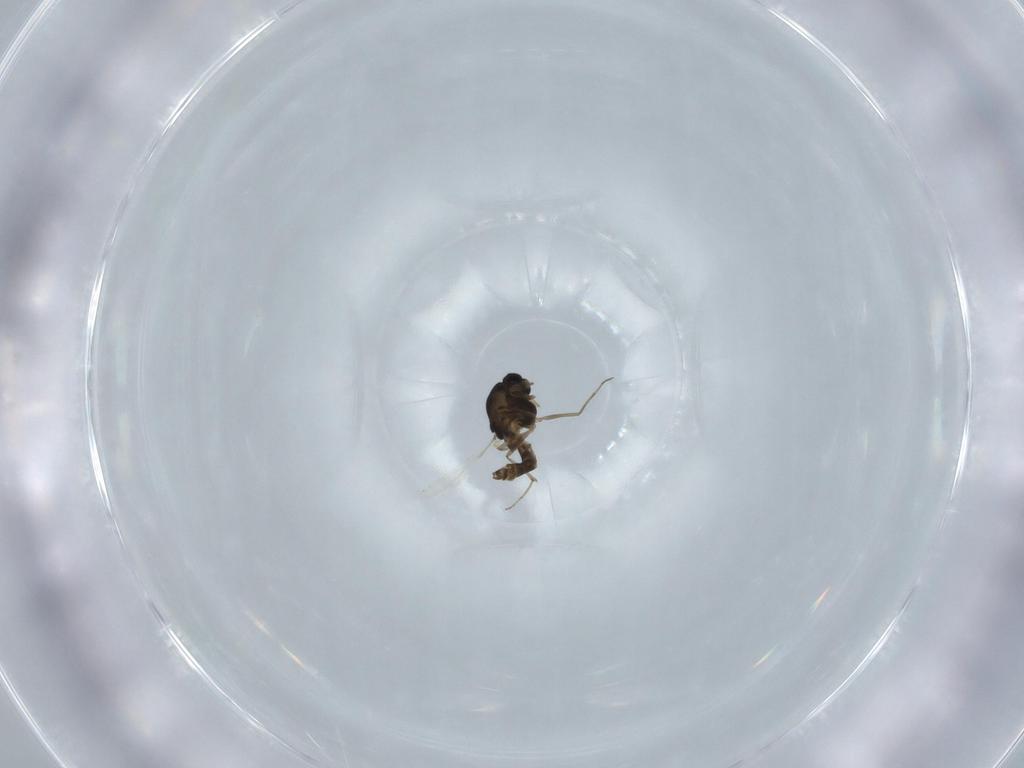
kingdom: Animalia
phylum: Arthropoda
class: Insecta
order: Diptera
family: Chironomidae
